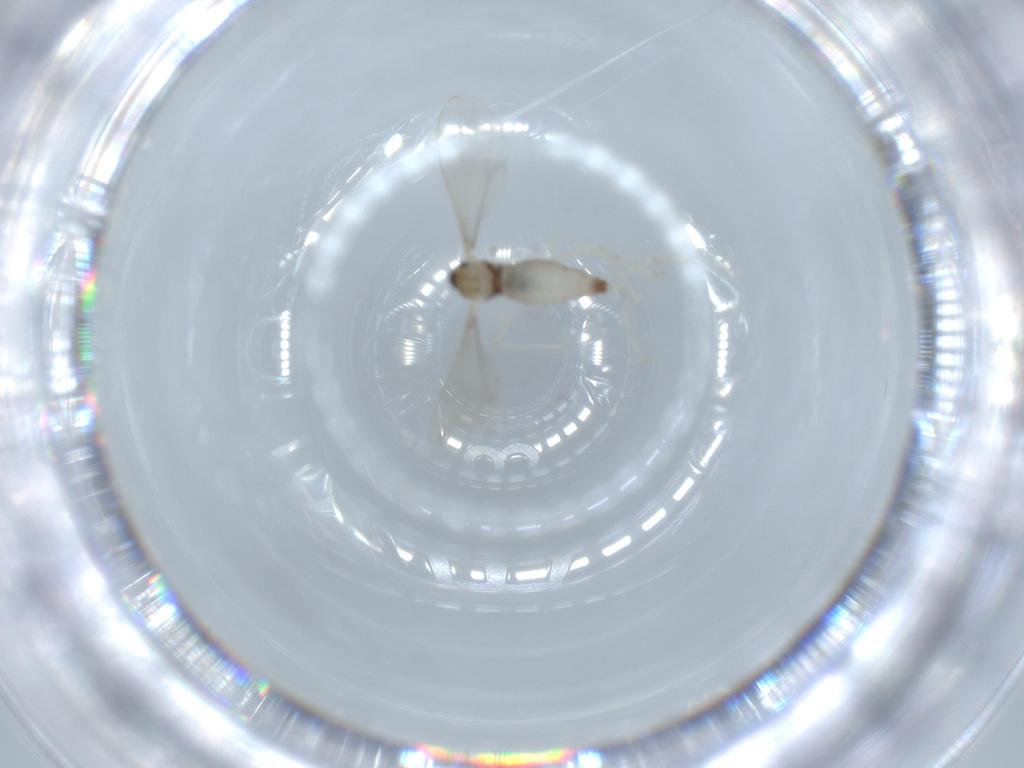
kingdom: Animalia
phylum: Arthropoda
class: Insecta
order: Diptera
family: Cecidomyiidae
